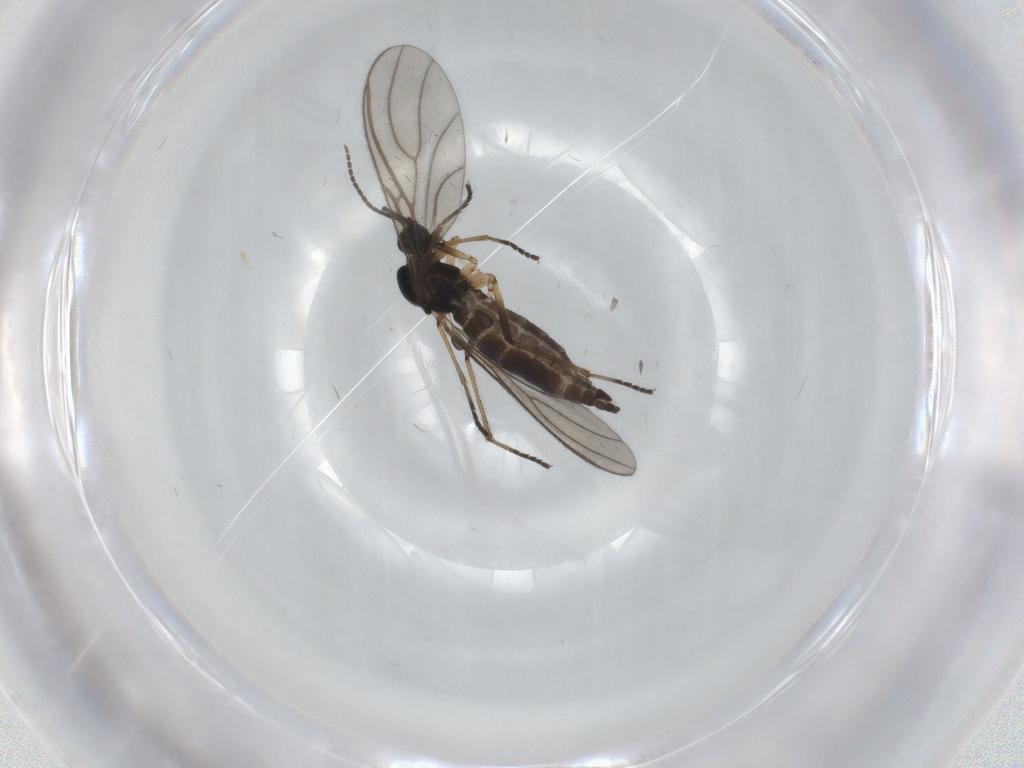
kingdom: Animalia
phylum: Arthropoda
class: Insecta
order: Diptera
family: Sciaridae
